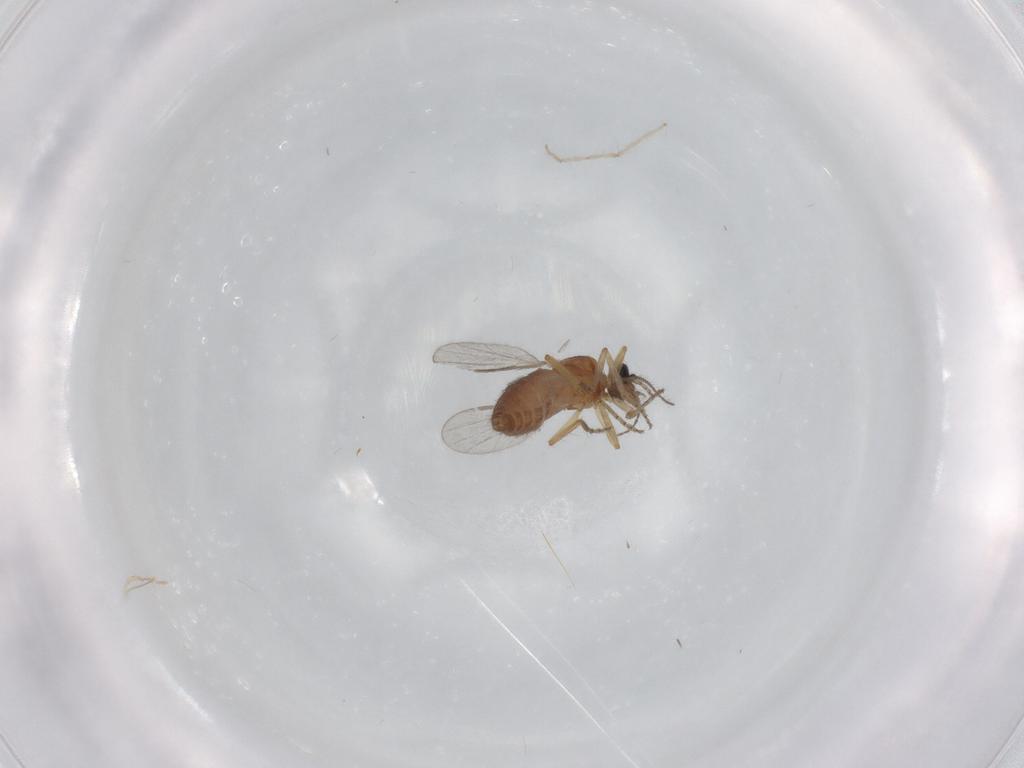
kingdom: Animalia
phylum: Arthropoda
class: Insecta
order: Diptera
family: Ceratopogonidae
